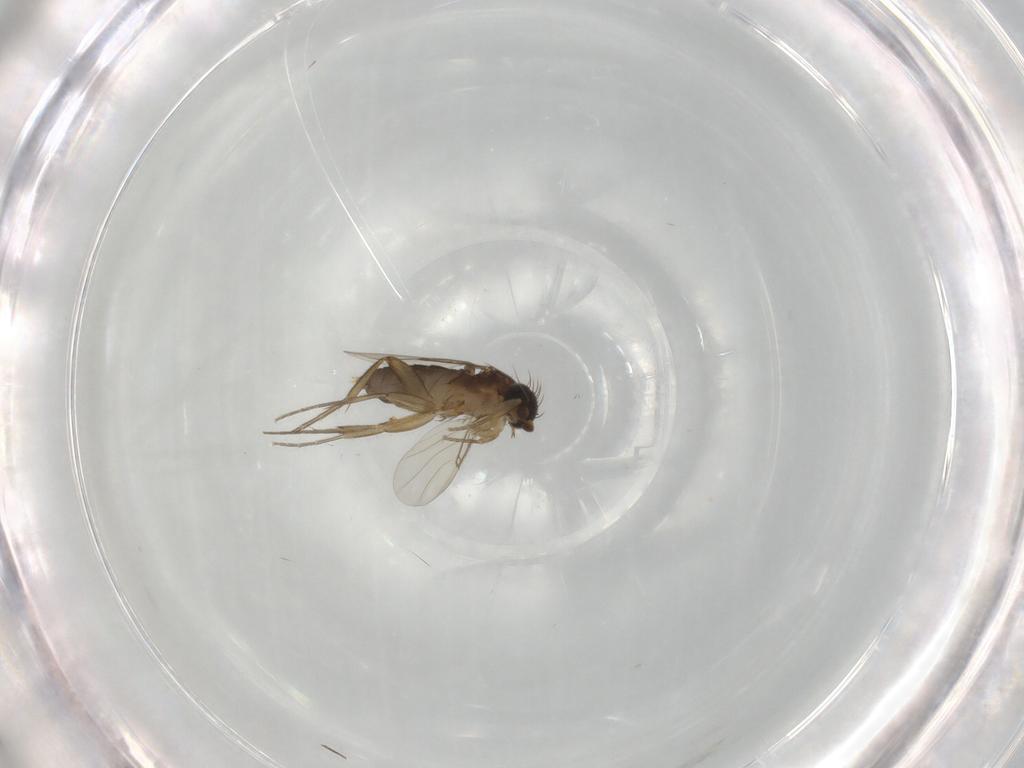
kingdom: Animalia
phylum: Arthropoda
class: Insecta
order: Diptera
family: Phoridae
